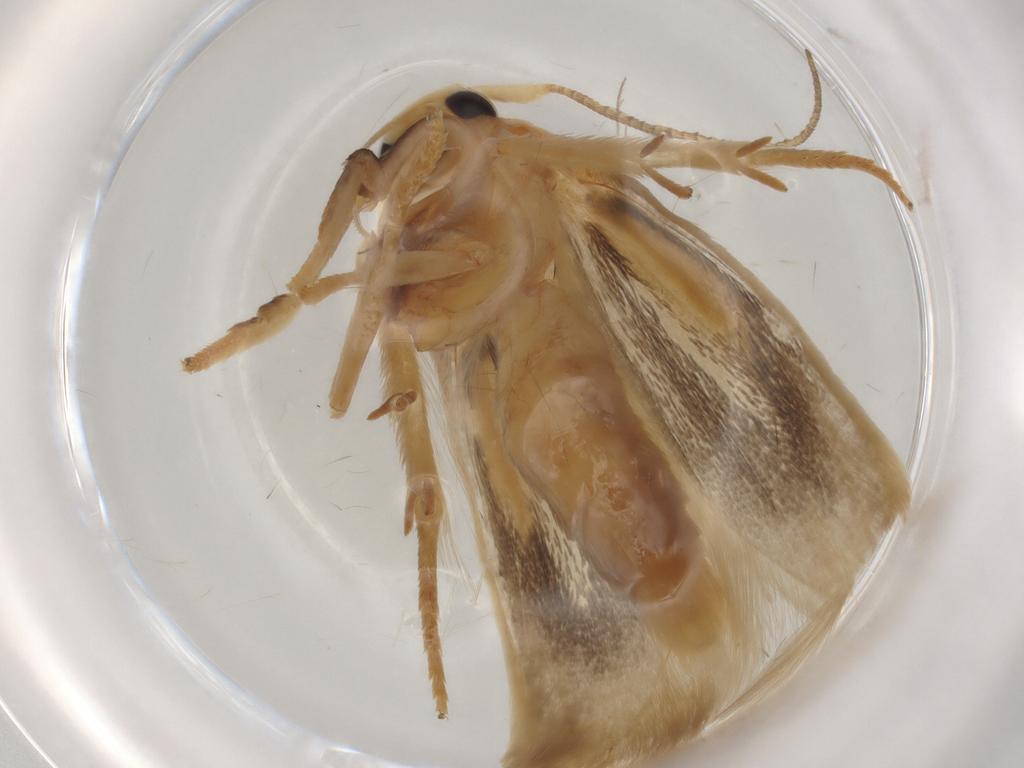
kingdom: Animalia
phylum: Arthropoda
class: Insecta
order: Lepidoptera
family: Geometridae
